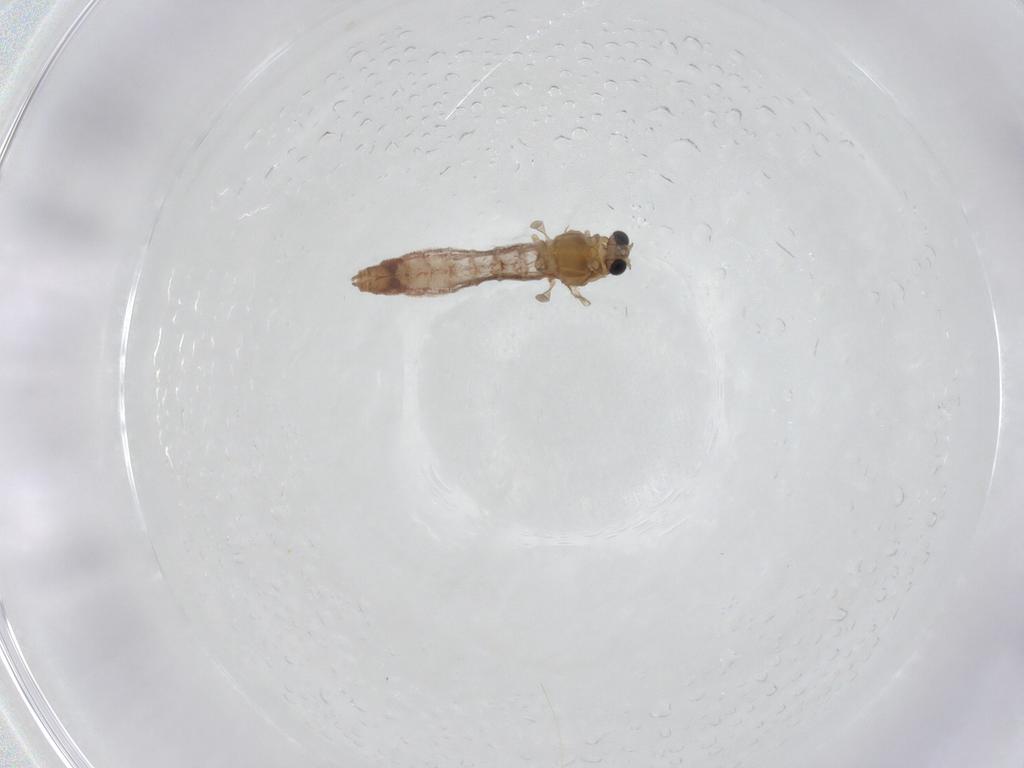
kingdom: Animalia
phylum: Arthropoda
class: Insecta
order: Diptera
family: Chironomidae
